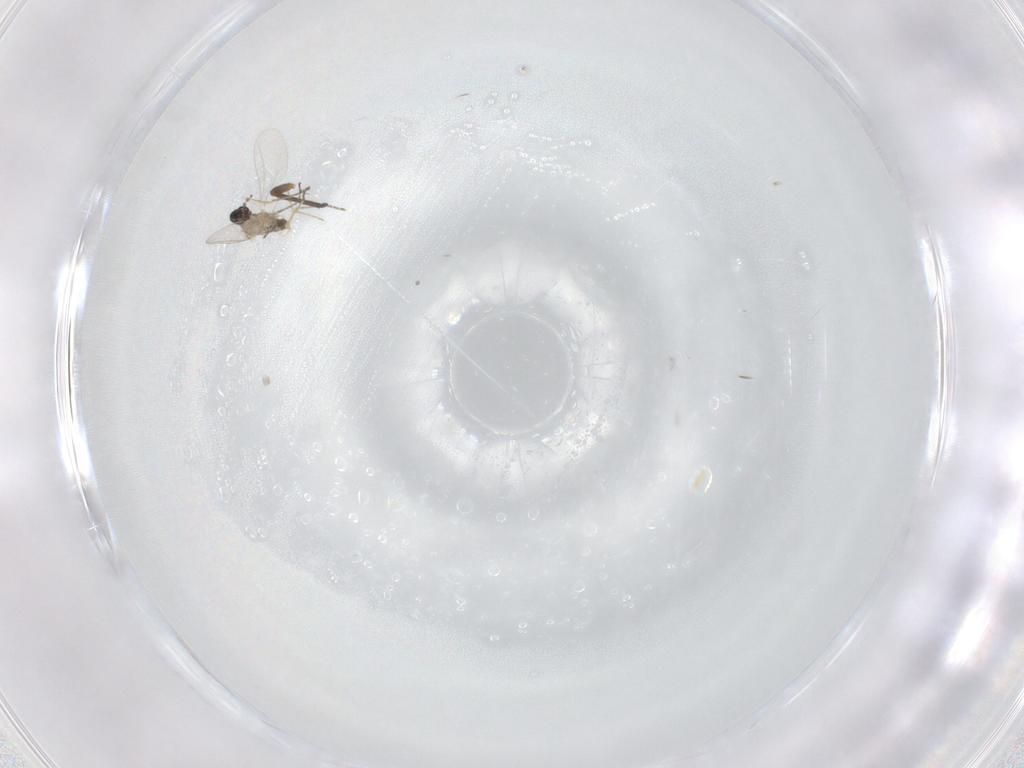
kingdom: Animalia
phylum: Arthropoda
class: Insecta
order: Diptera
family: Cecidomyiidae
